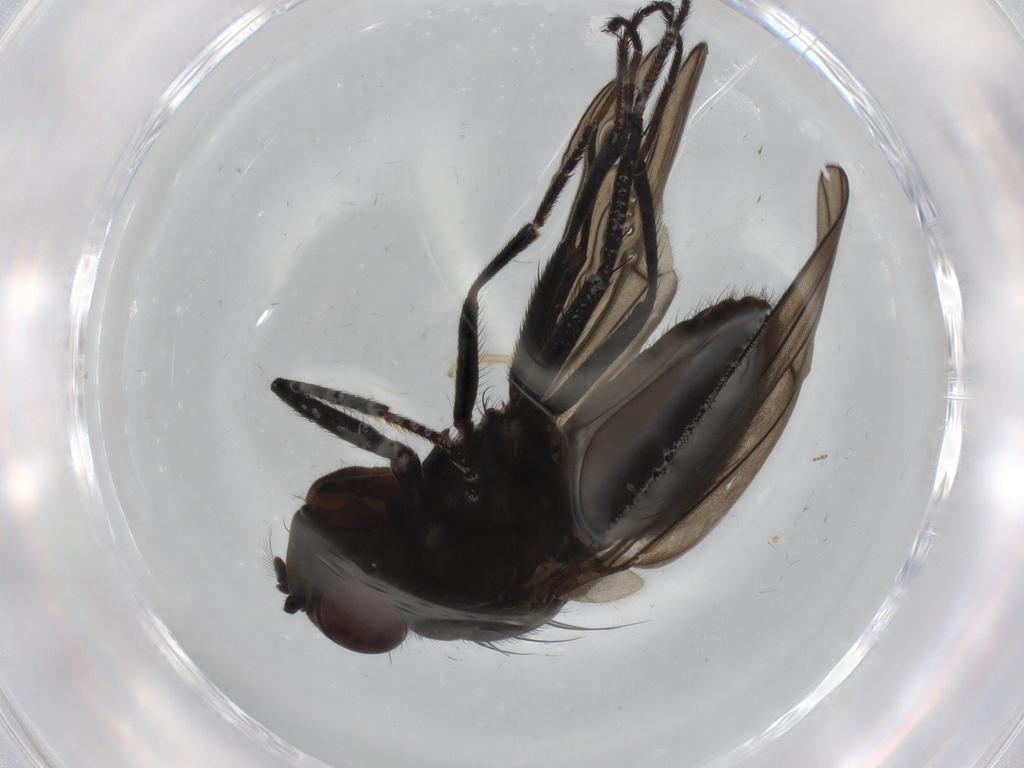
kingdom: Animalia
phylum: Arthropoda
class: Insecta
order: Diptera
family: Ephydridae
